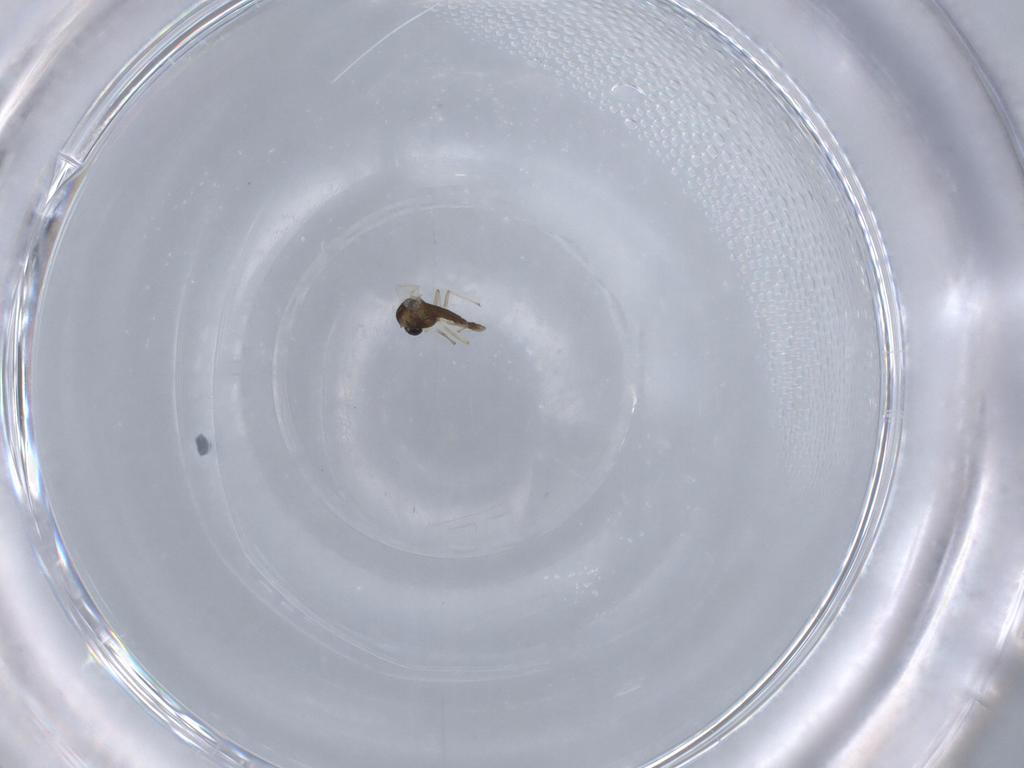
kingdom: Animalia
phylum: Arthropoda
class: Insecta
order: Diptera
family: Chironomidae
